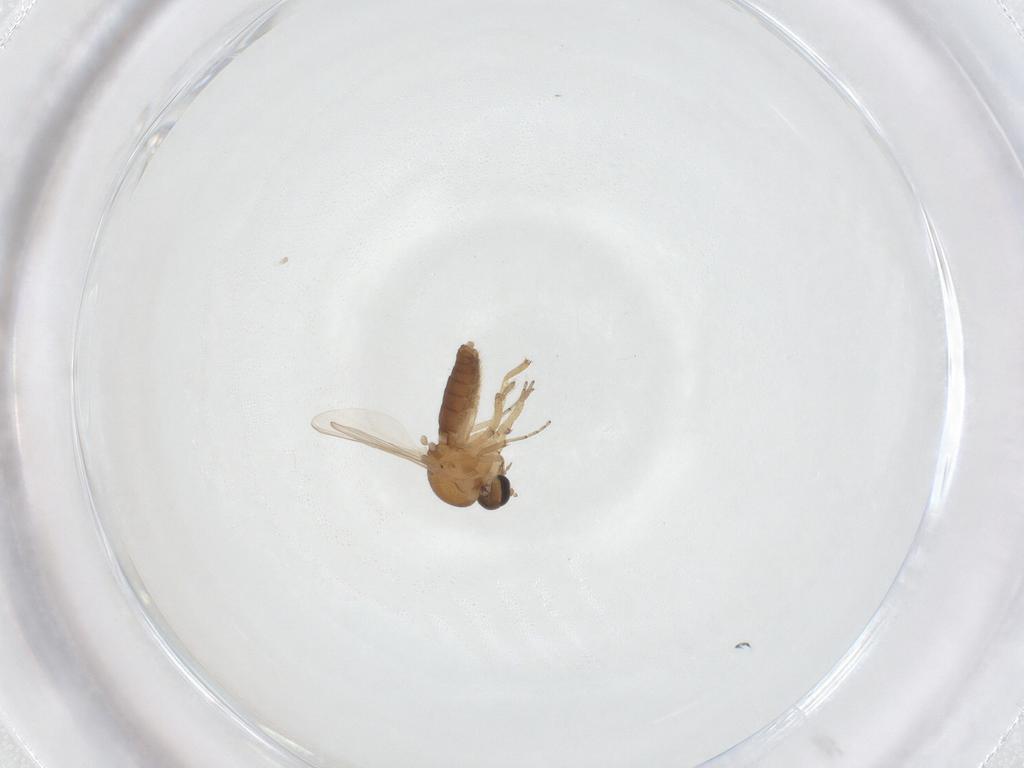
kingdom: Animalia
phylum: Arthropoda
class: Insecta
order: Diptera
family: Ceratopogonidae
